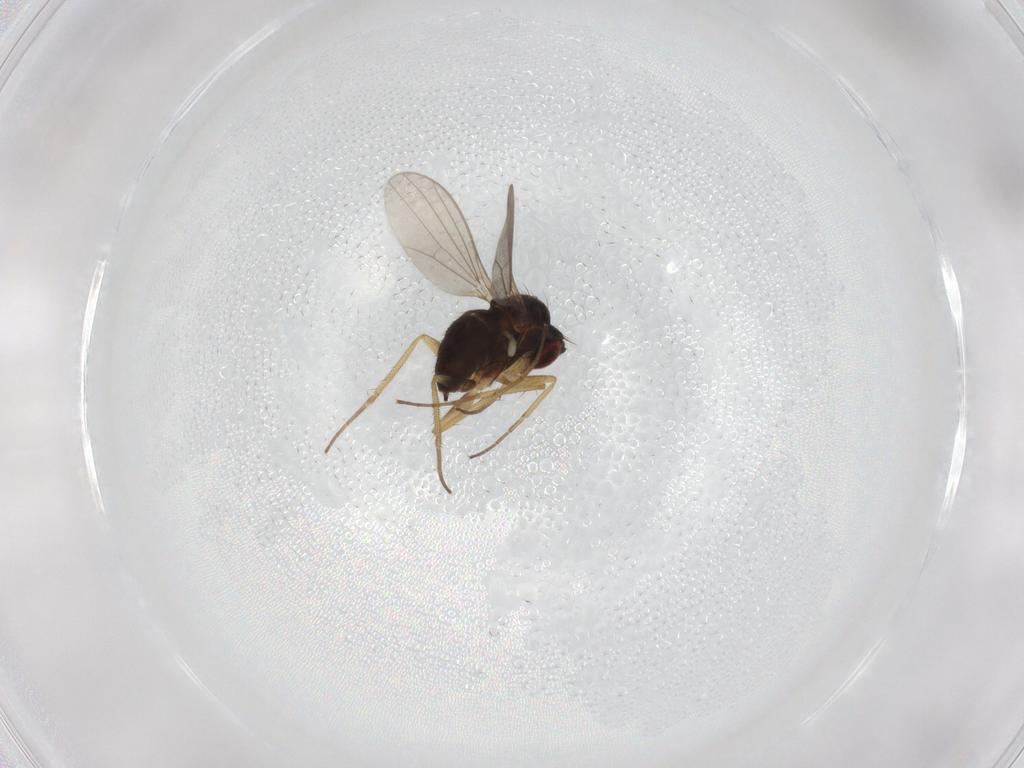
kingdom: Animalia
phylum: Arthropoda
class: Insecta
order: Diptera
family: Dolichopodidae
